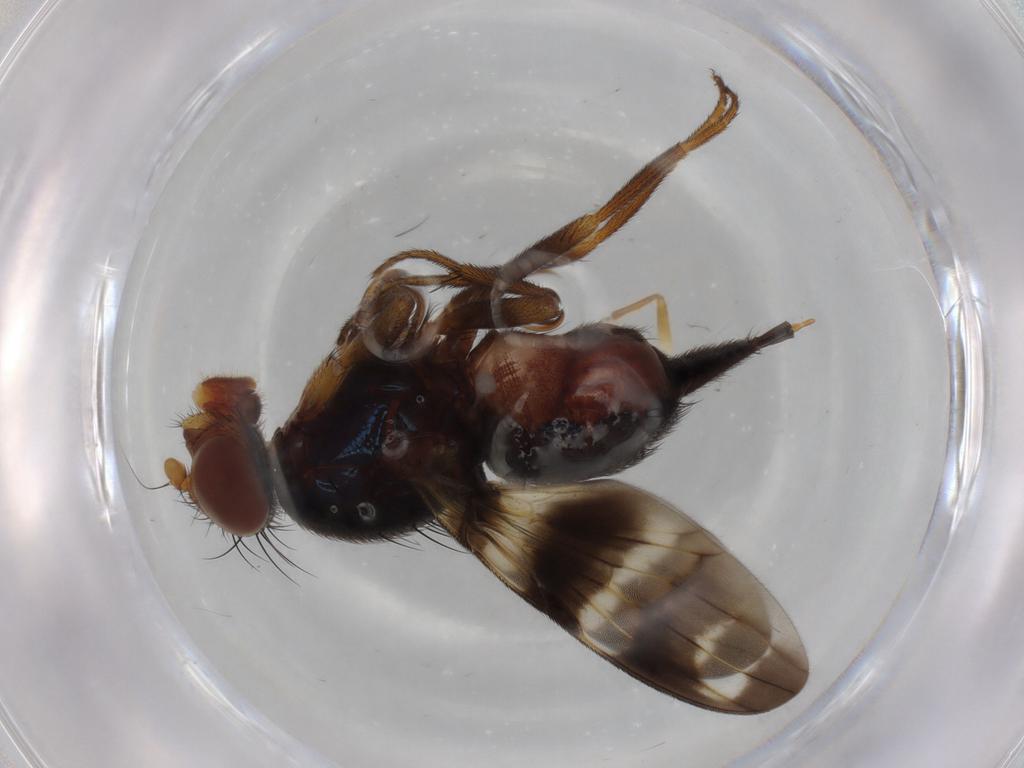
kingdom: Animalia
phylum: Arthropoda
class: Insecta
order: Diptera
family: Ulidiidae
